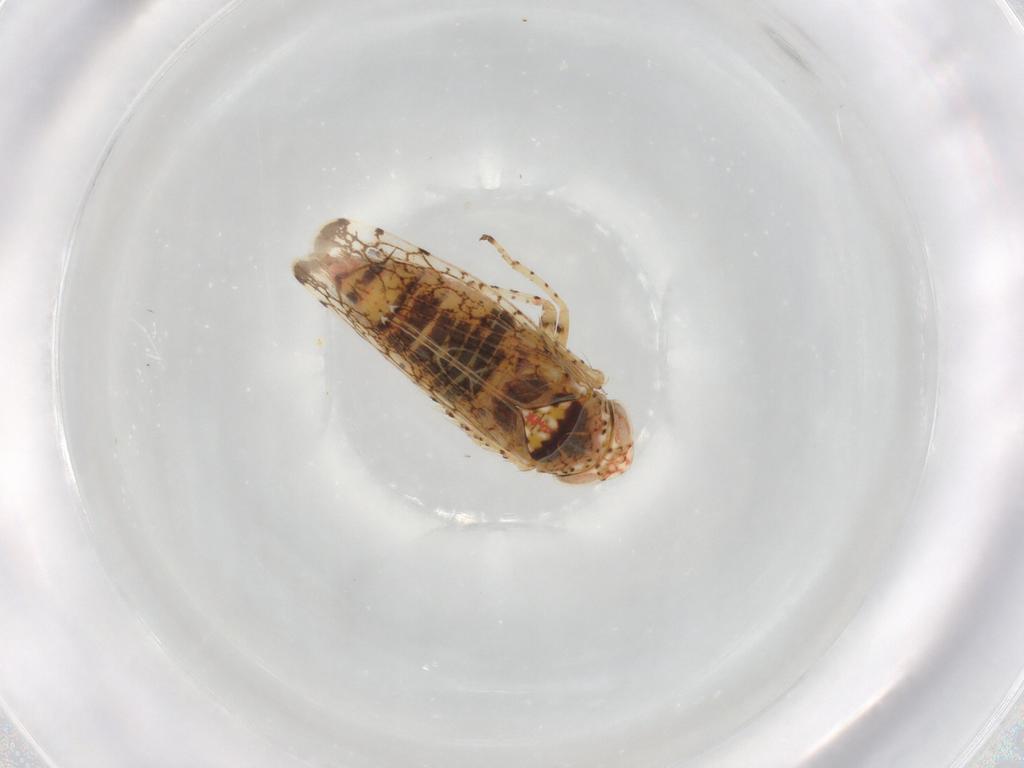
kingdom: Animalia
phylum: Arthropoda
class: Insecta
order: Hemiptera
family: Cicadellidae
